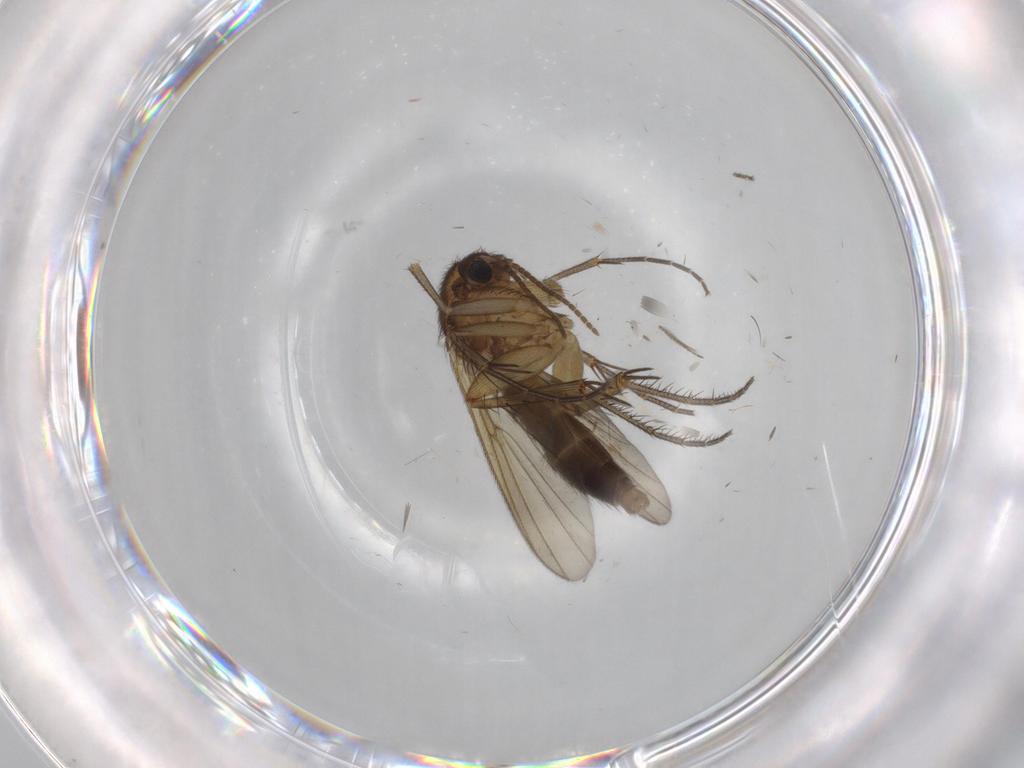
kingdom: Animalia
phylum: Arthropoda
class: Insecta
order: Diptera
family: Mycetophilidae
